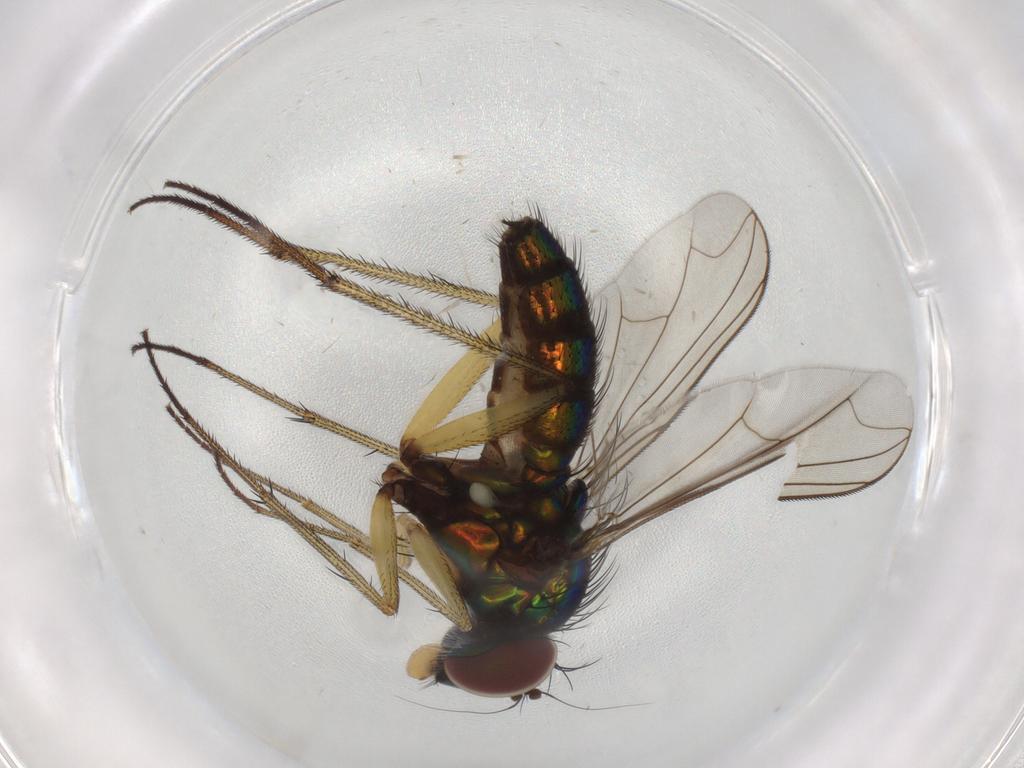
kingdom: Animalia
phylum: Arthropoda
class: Insecta
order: Diptera
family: Dolichopodidae
